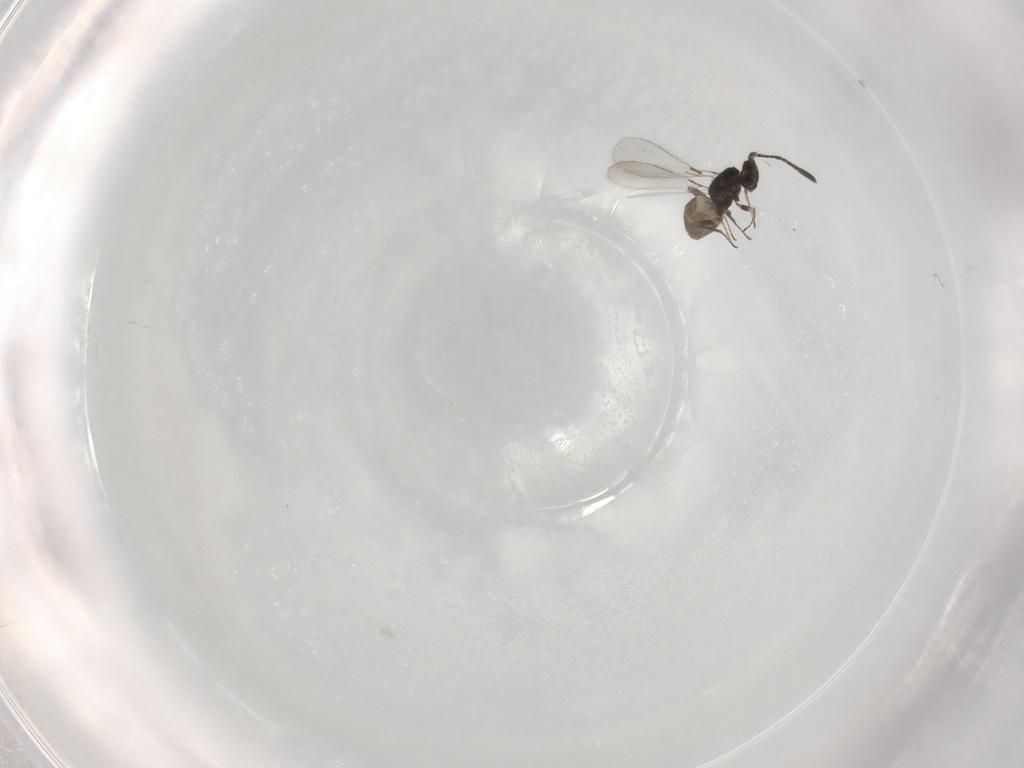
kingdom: Animalia
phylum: Arthropoda
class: Insecta
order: Hymenoptera
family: Mymaridae
